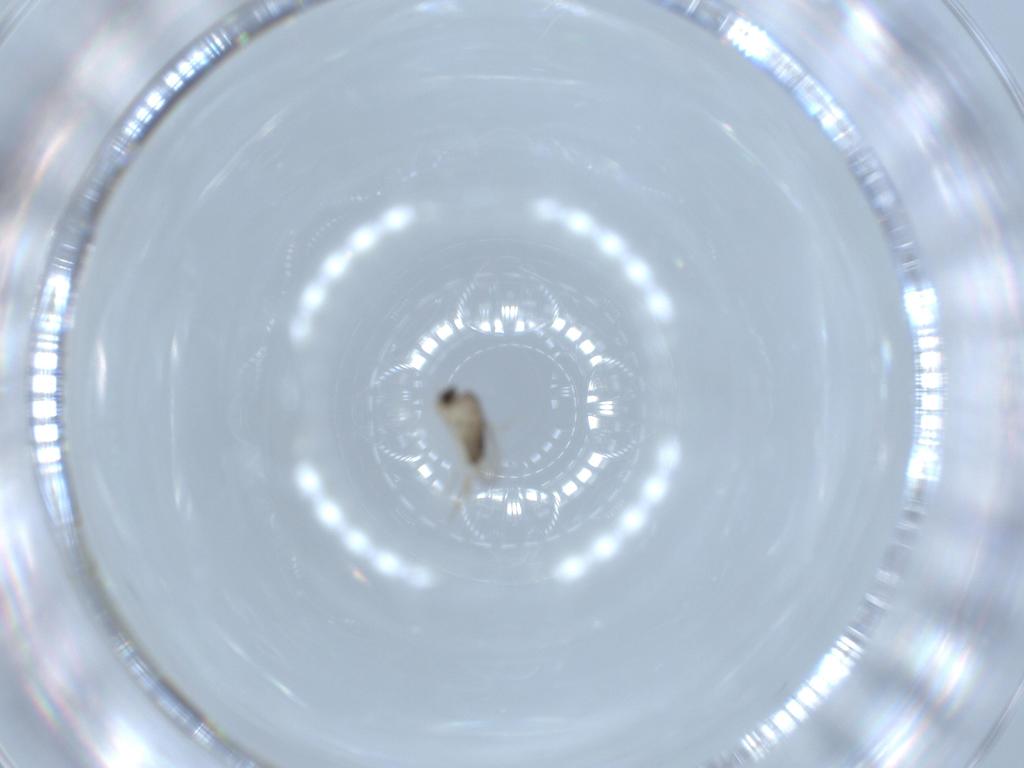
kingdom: Animalia
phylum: Arthropoda
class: Insecta
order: Diptera
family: Phoridae
